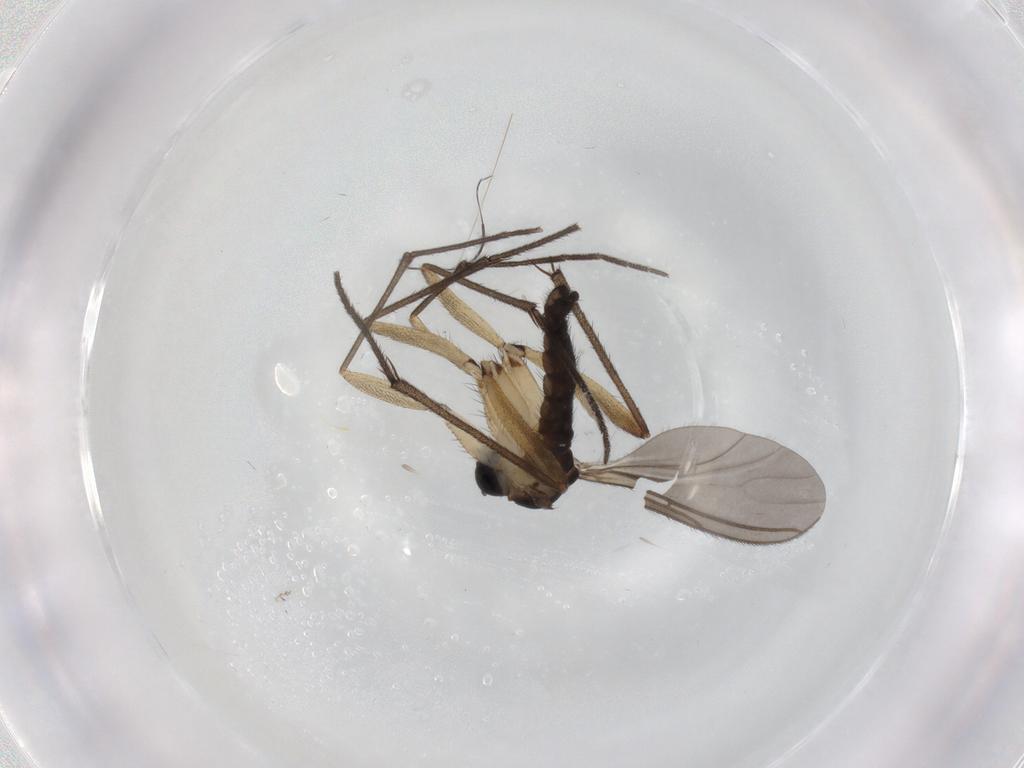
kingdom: Animalia
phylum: Arthropoda
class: Insecta
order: Diptera
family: Sciaridae
